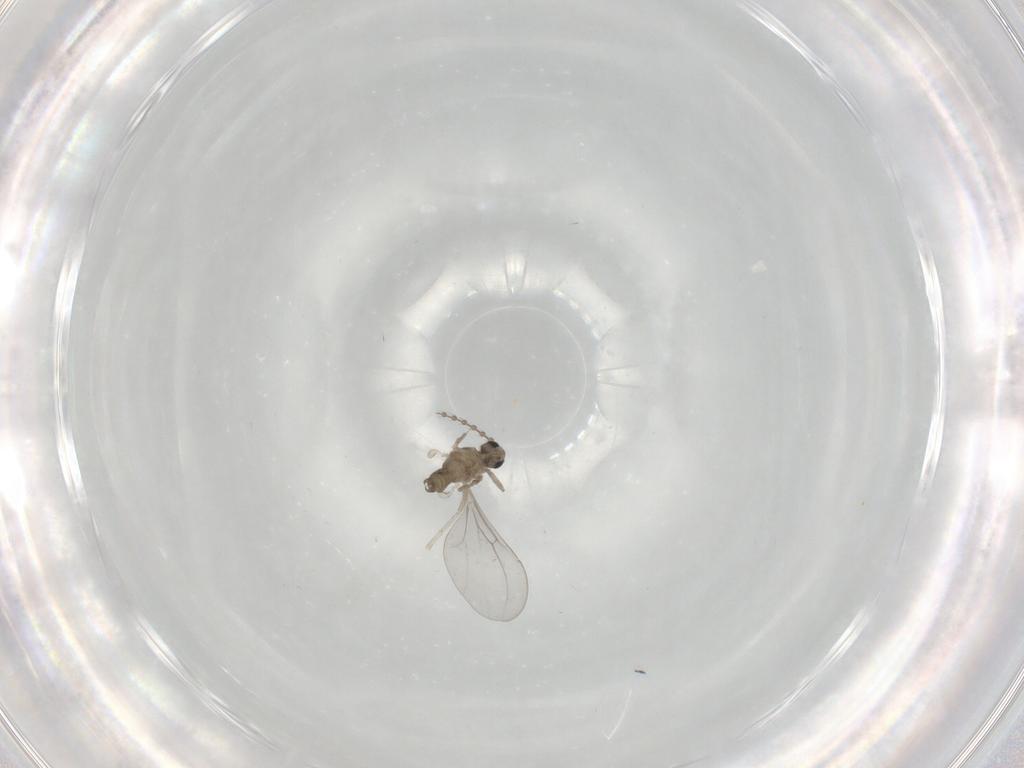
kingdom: Animalia
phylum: Arthropoda
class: Insecta
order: Diptera
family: Cecidomyiidae
